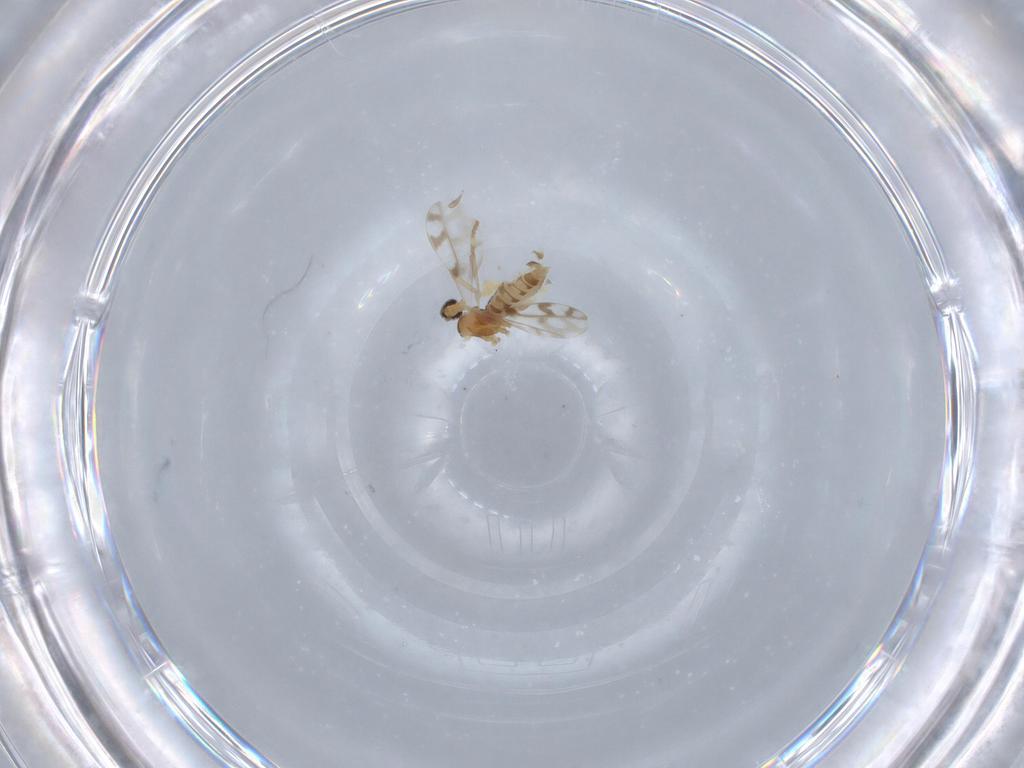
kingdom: Animalia
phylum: Arthropoda
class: Insecta
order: Diptera
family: Cecidomyiidae
